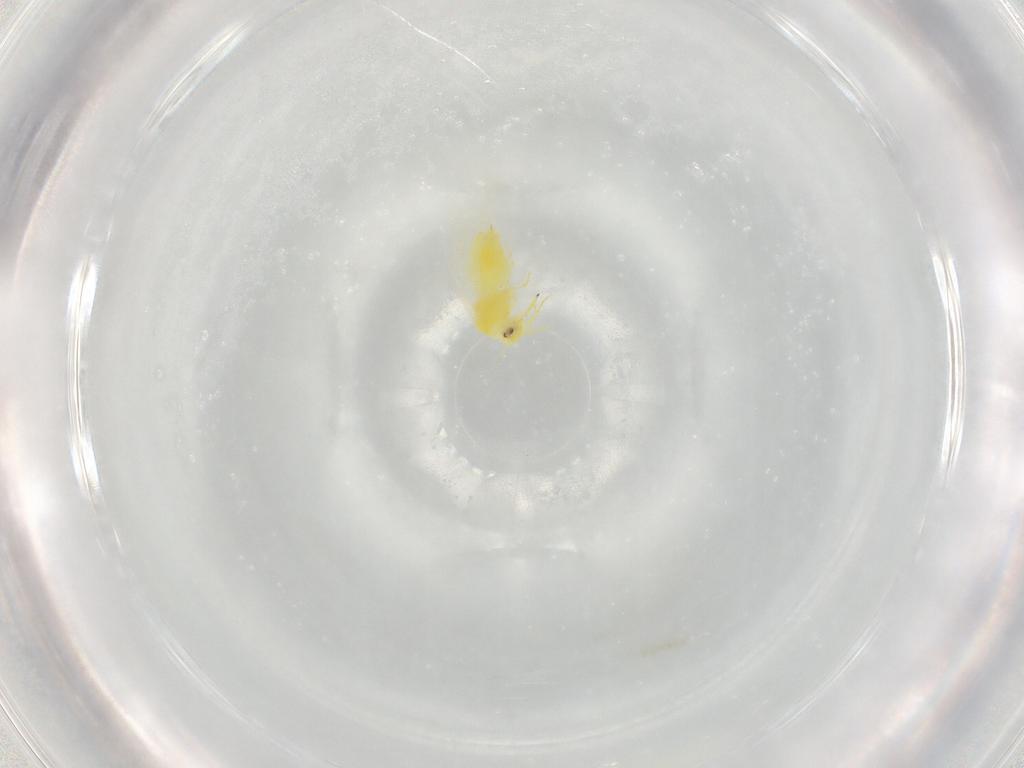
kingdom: Animalia
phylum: Arthropoda
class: Insecta
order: Hemiptera
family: Aleyrodidae
